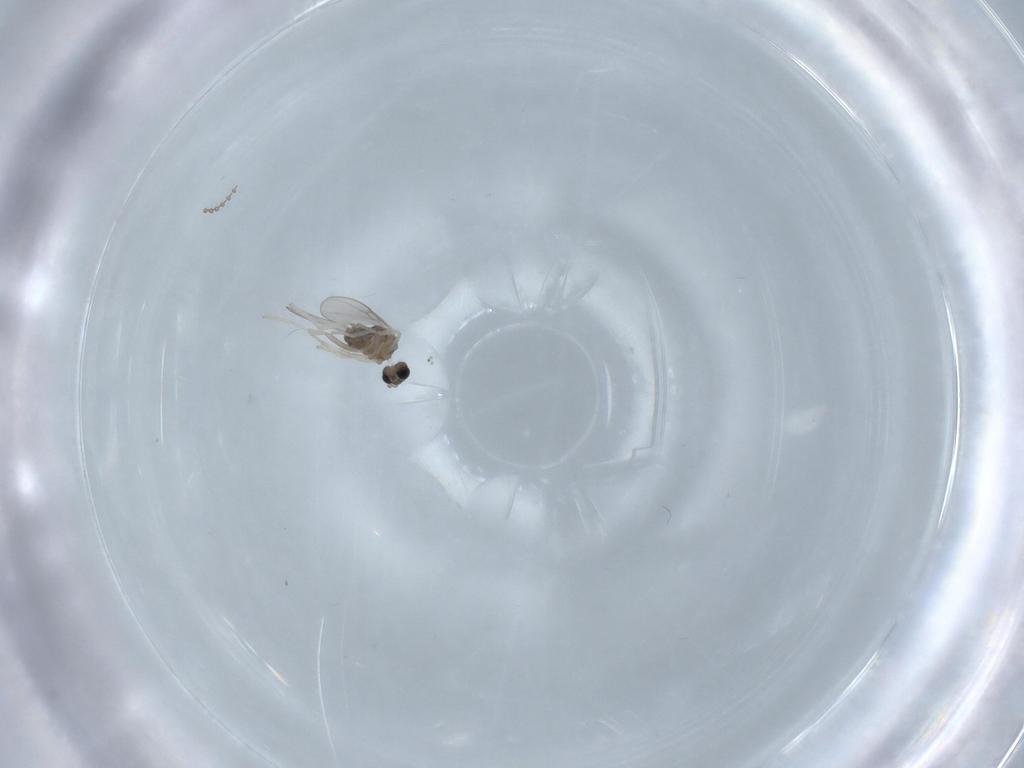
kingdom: Animalia
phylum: Arthropoda
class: Insecta
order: Diptera
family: Cecidomyiidae
